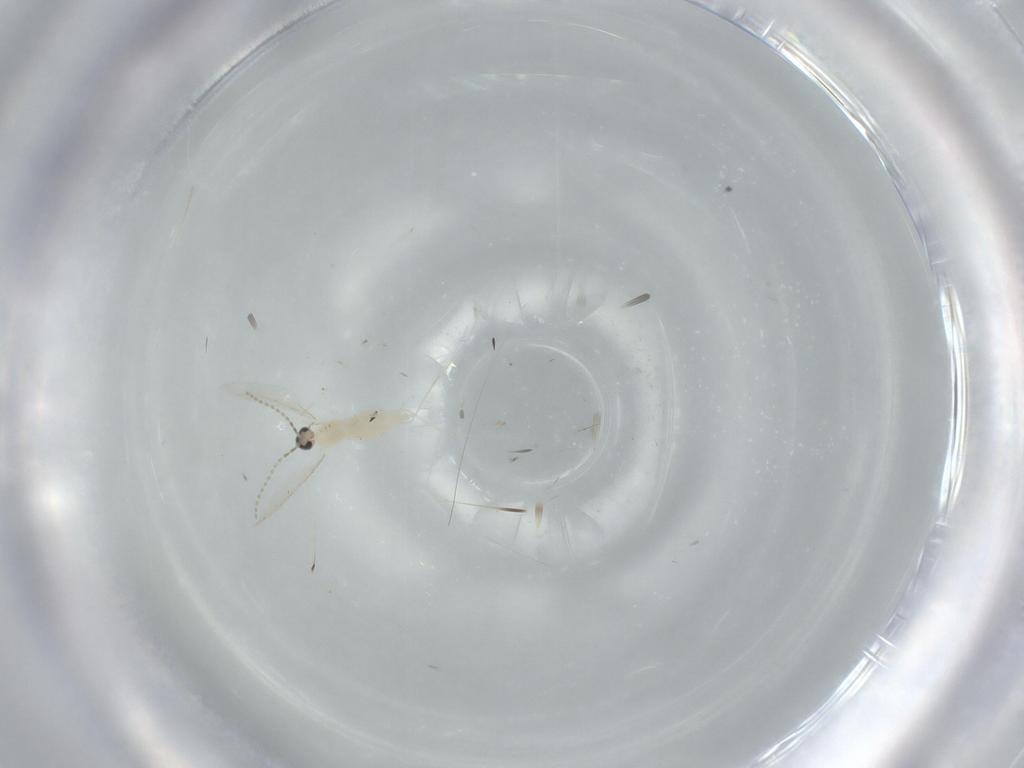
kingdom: Animalia
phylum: Arthropoda
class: Insecta
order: Diptera
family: Cecidomyiidae
